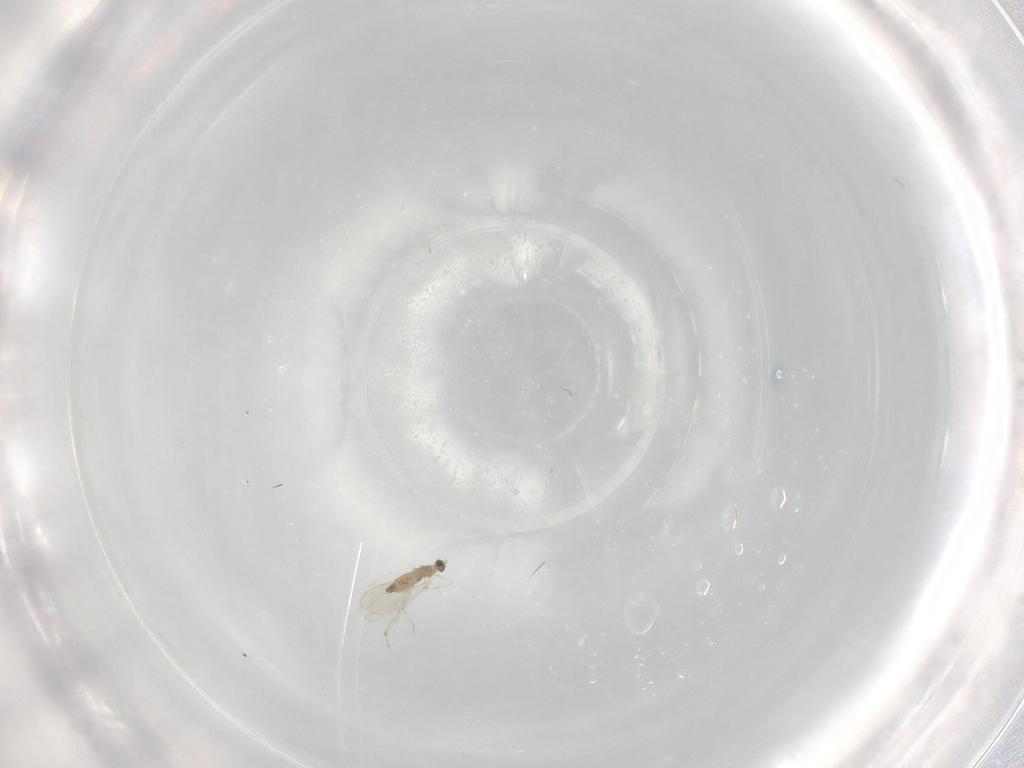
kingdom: Animalia
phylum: Arthropoda
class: Insecta
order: Diptera
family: Cecidomyiidae
